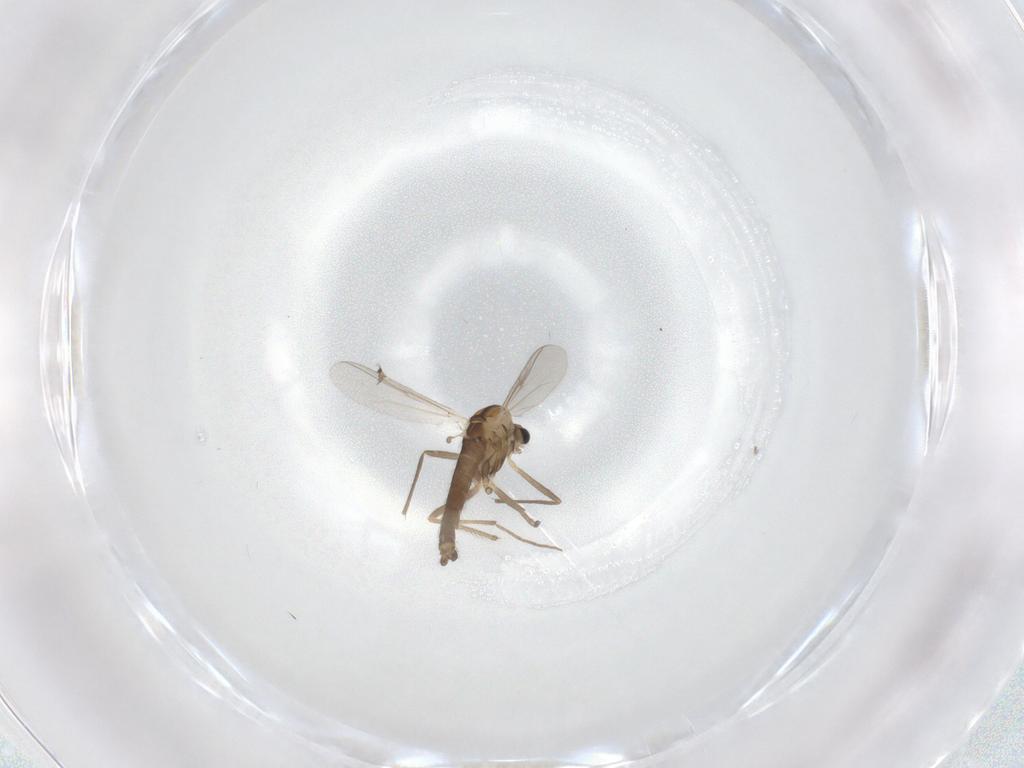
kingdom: Animalia
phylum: Arthropoda
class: Insecta
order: Diptera
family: Chironomidae
